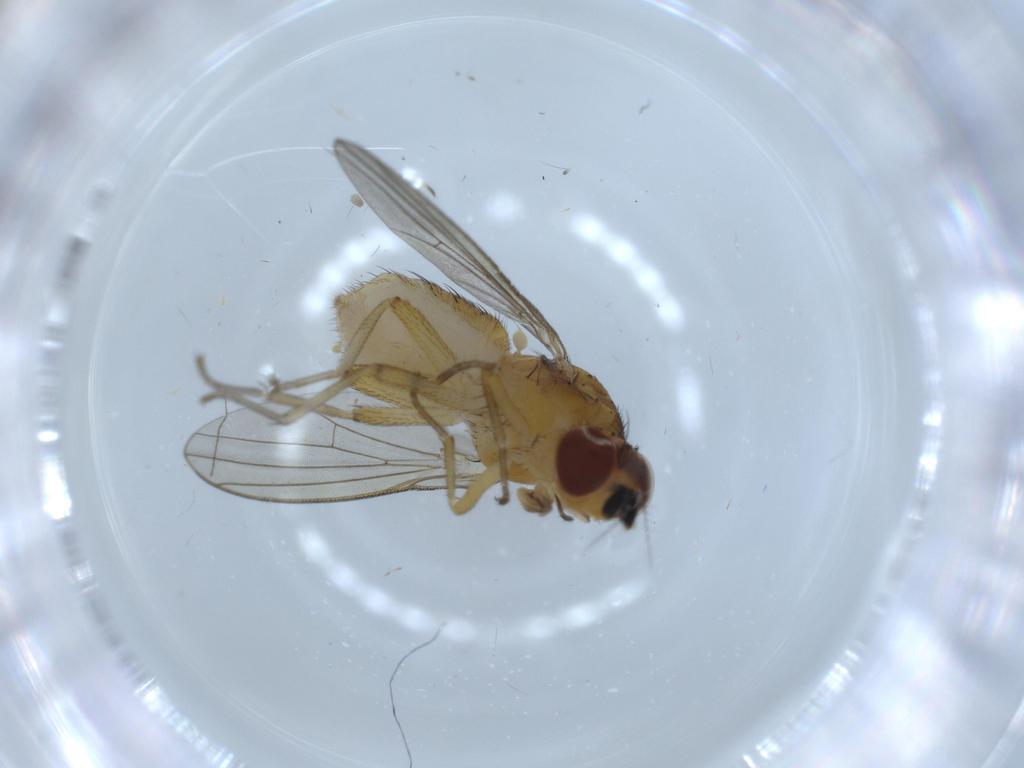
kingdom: Animalia
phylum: Arthropoda
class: Insecta
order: Diptera
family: Lauxaniidae
